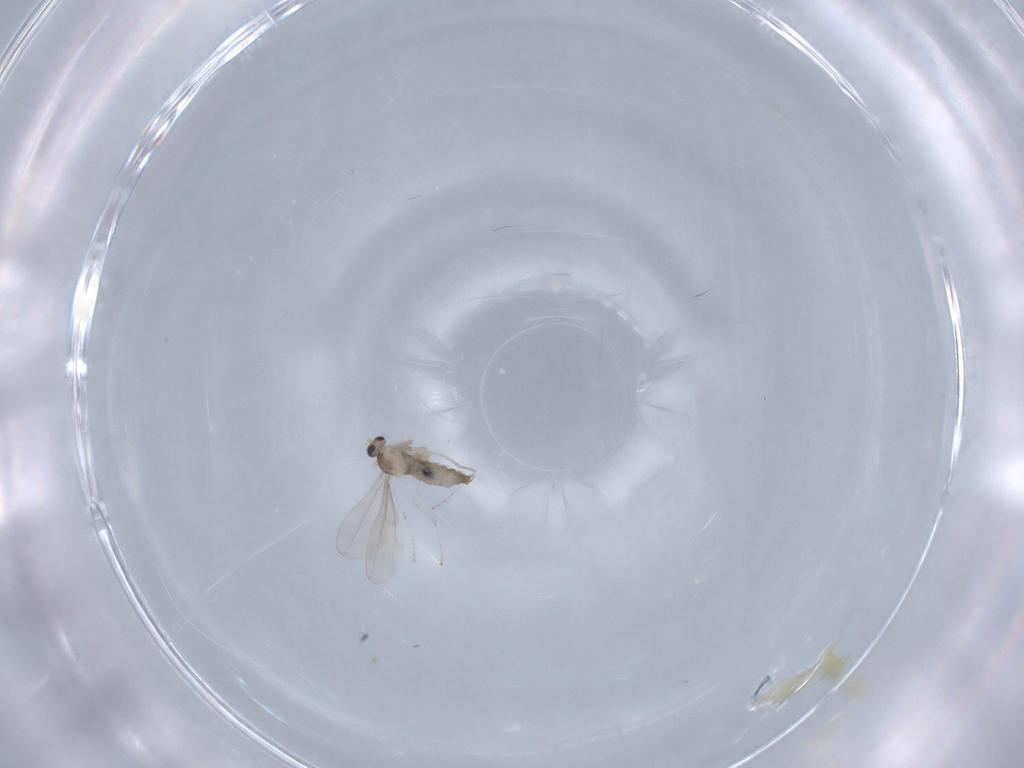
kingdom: Animalia
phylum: Arthropoda
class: Insecta
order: Diptera
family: Cecidomyiidae
